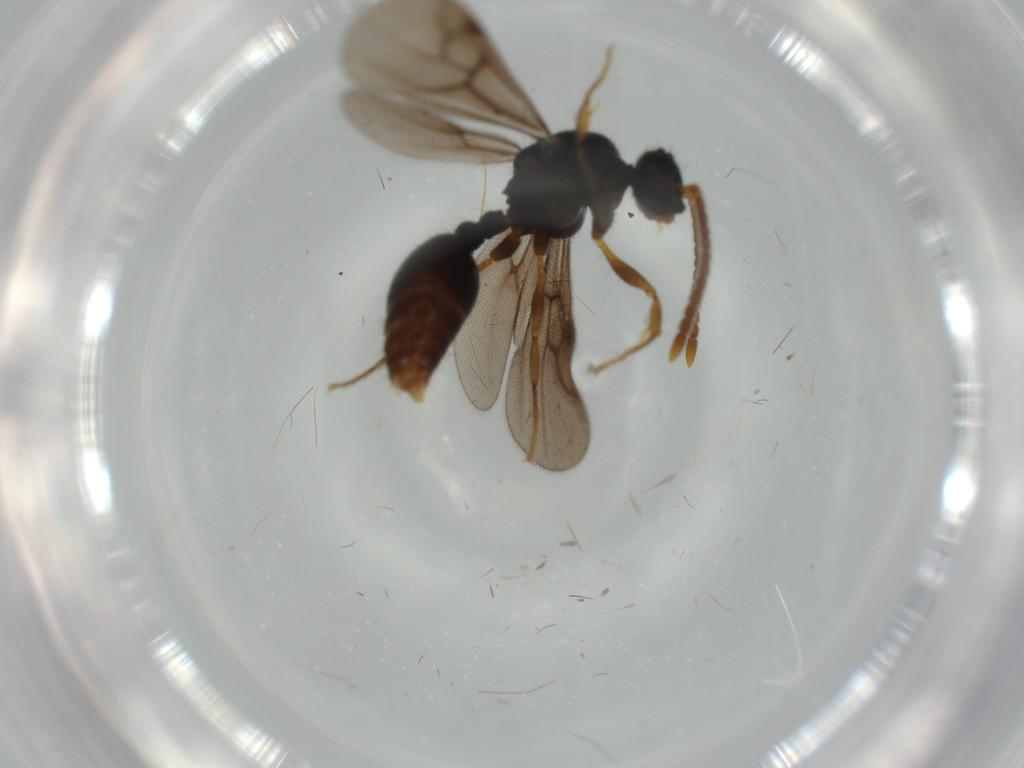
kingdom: Animalia
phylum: Arthropoda
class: Insecta
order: Hymenoptera
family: Formicidae
